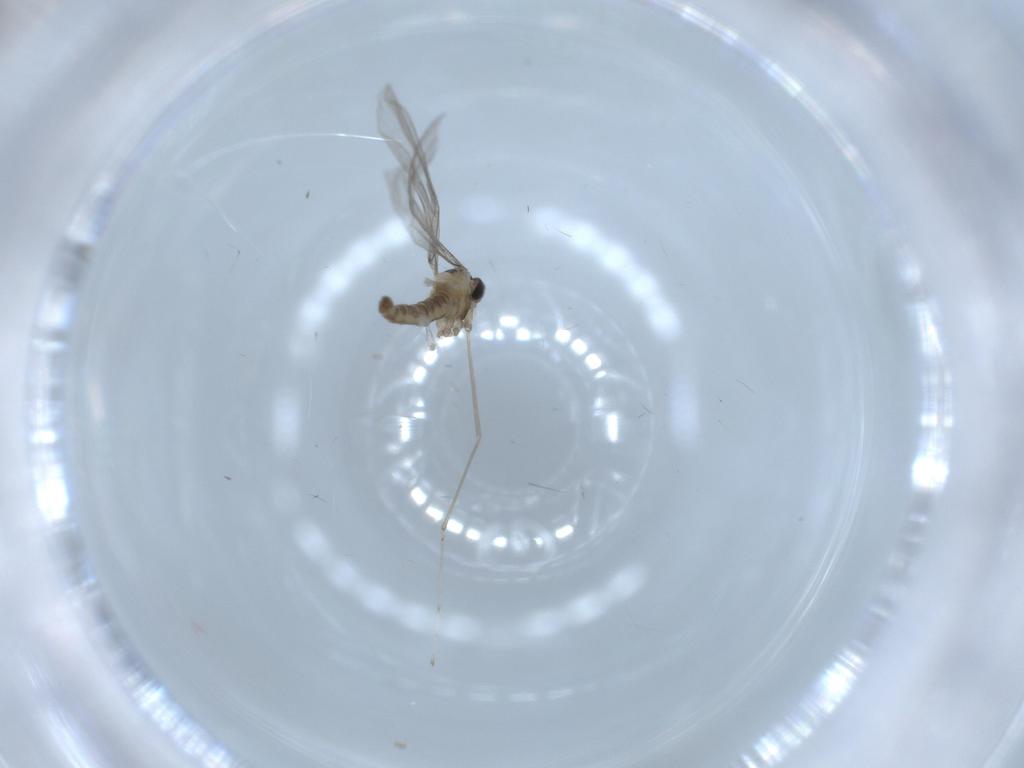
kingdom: Animalia
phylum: Arthropoda
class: Insecta
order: Diptera
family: Cecidomyiidae
